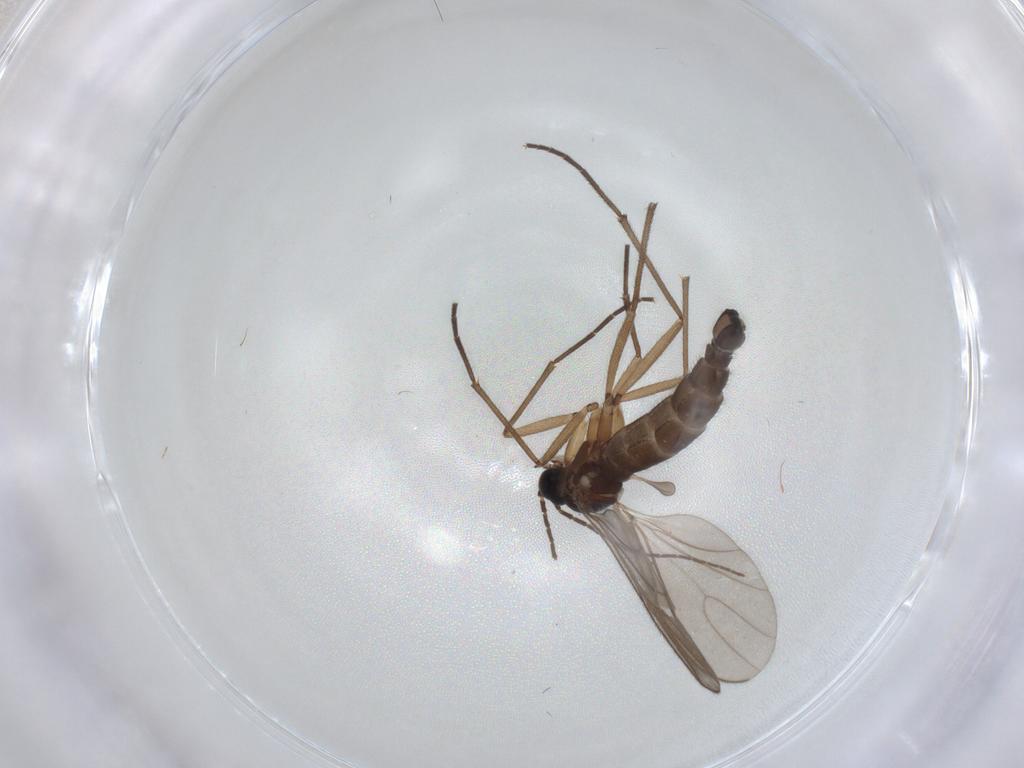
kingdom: Animalia
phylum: Arthropoda
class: Insecta
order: Diptera
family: Sciaridae
